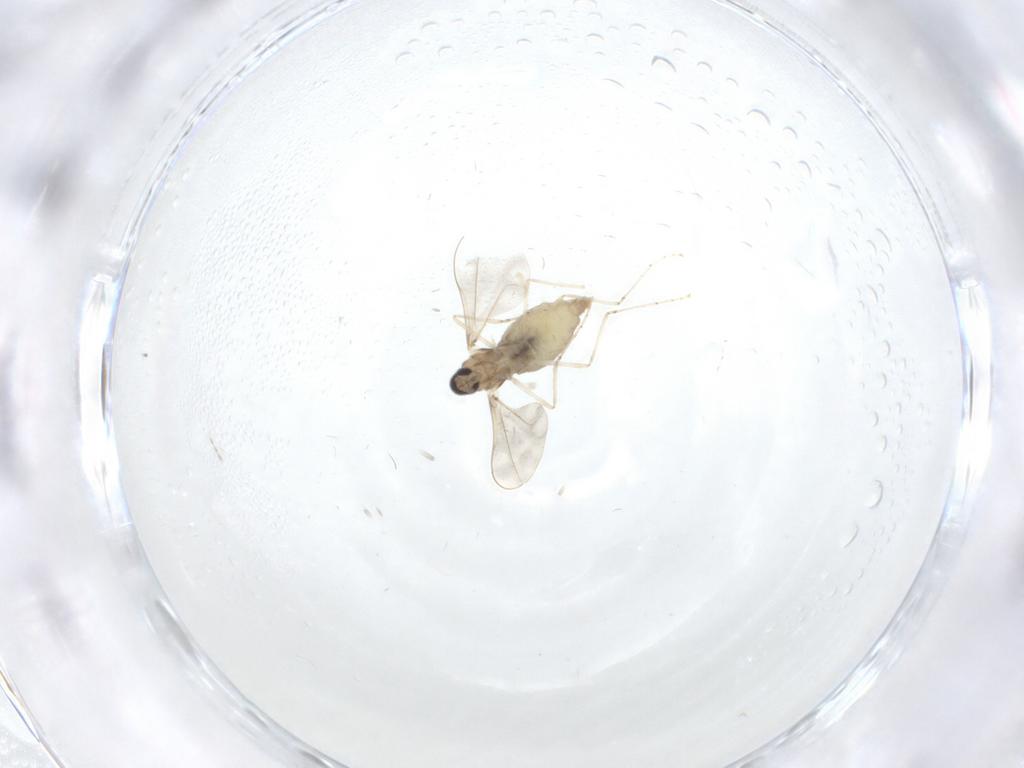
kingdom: Animalia
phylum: Arthropoda
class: Insecta
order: Diptera
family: Cecidomyiidae
